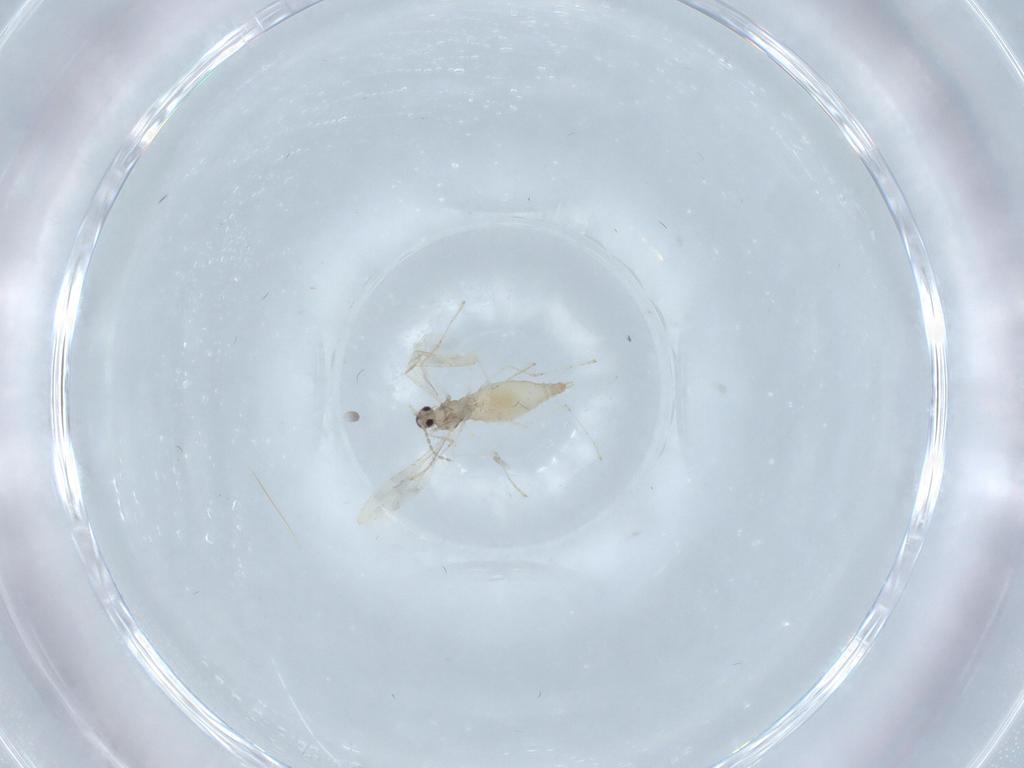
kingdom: Animalia
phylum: Arthropoda
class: Insecta
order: Diptera
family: Cecidomyiidae
